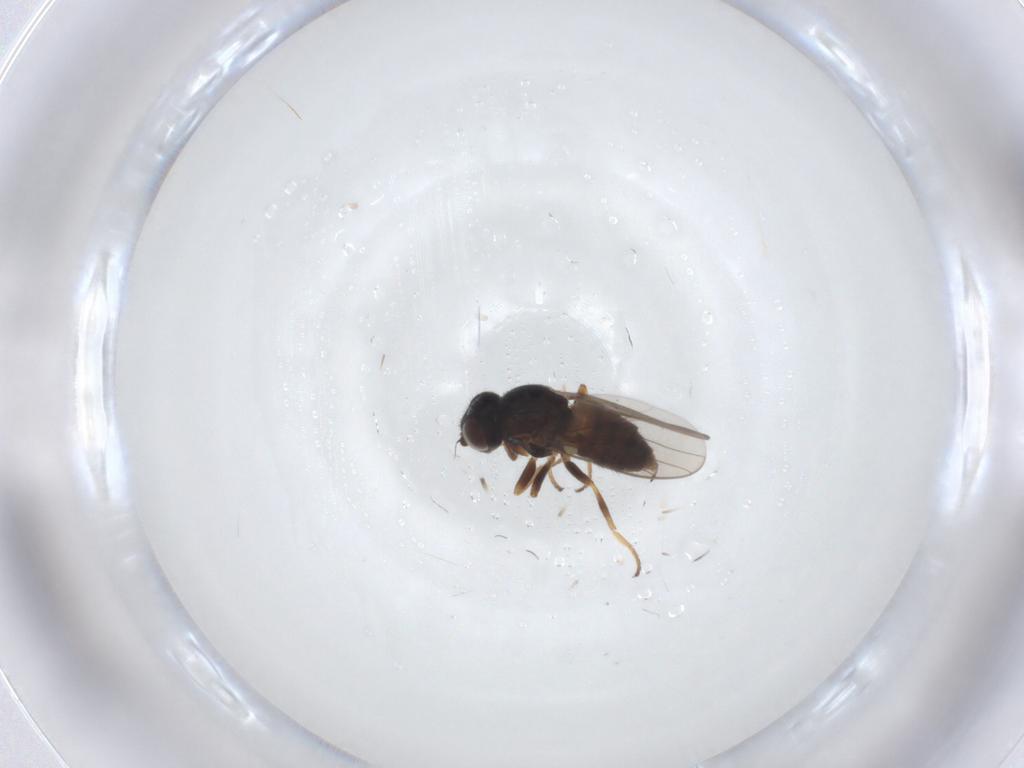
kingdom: Animalia
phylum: Arthropoda
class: Insecta
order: Diptera
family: Chloropidae
